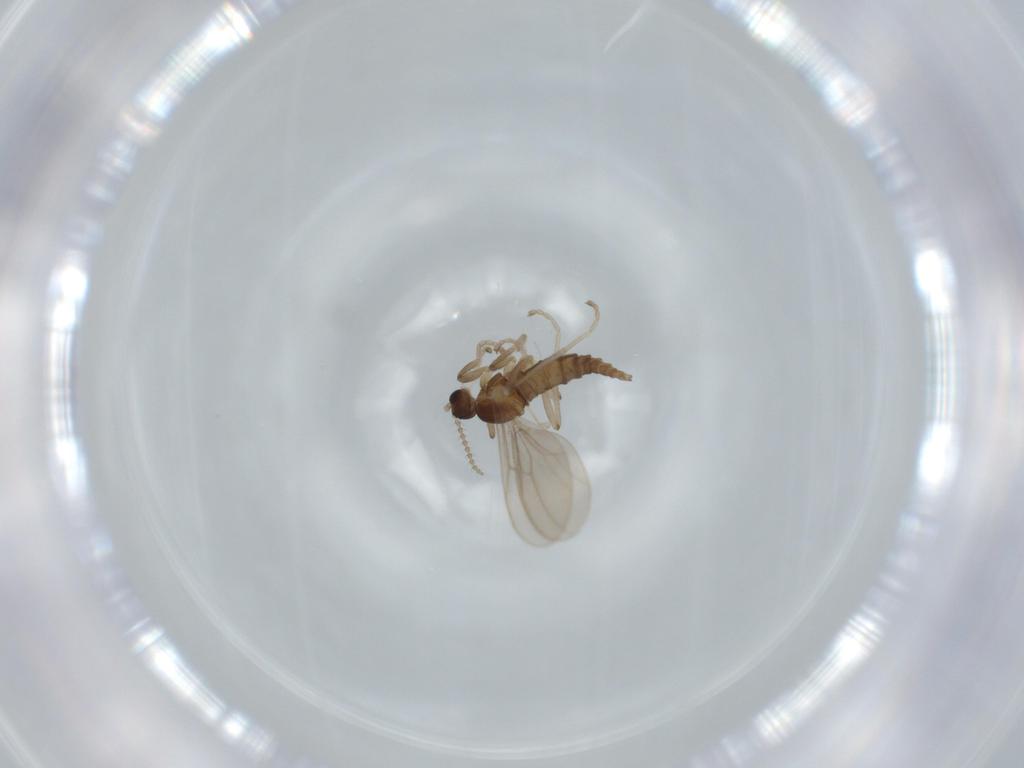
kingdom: Animalia
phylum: Arthropoda
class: Insecta
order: Diptera
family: Cecidomyiidae
